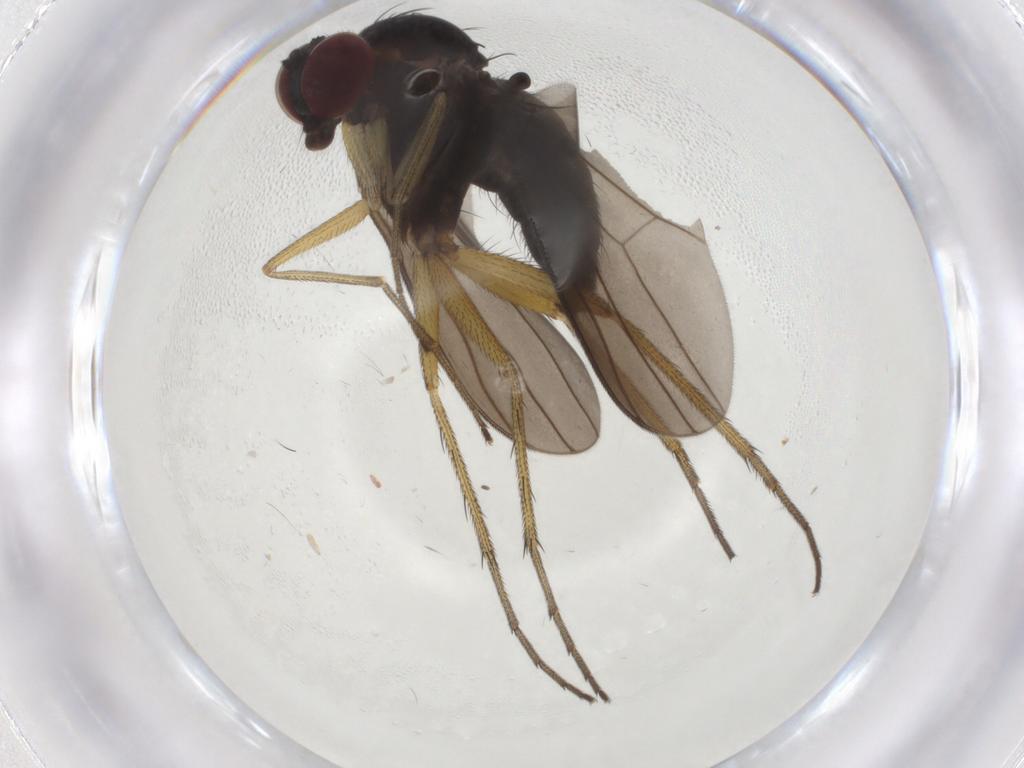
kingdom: Animalia
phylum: Arthropoda
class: Insecta
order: Diptera
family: Dolichopodidae
